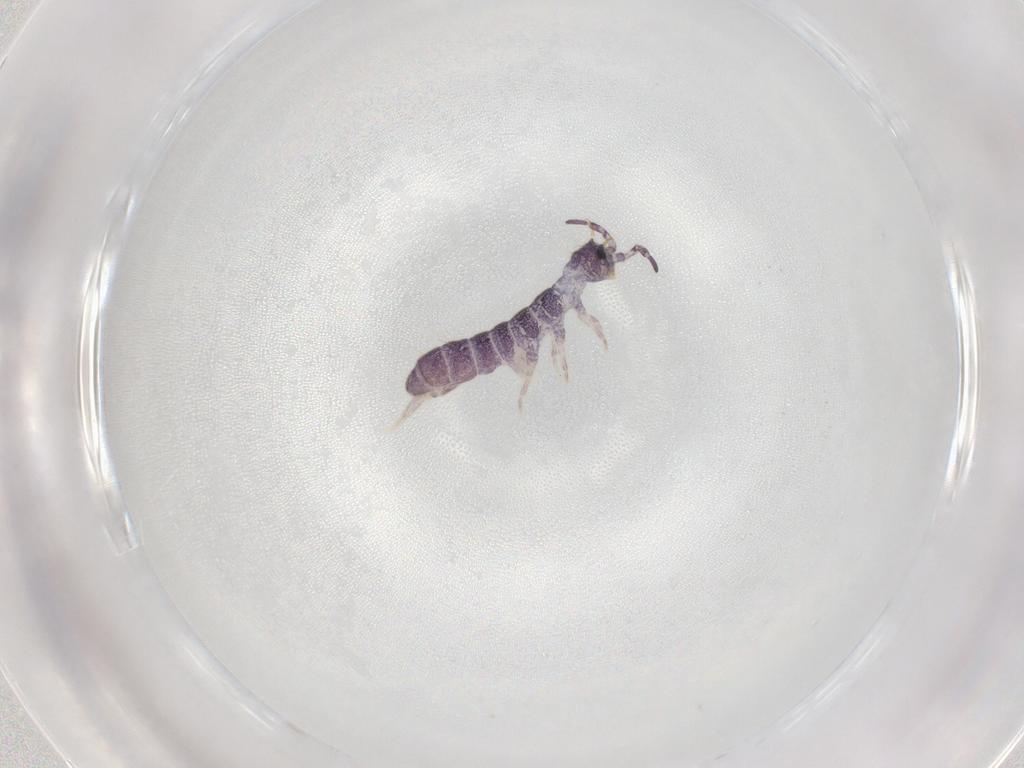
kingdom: Animalia
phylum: Arthropoda
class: Collembola
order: Entomobryomorpha
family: Isotomidae
